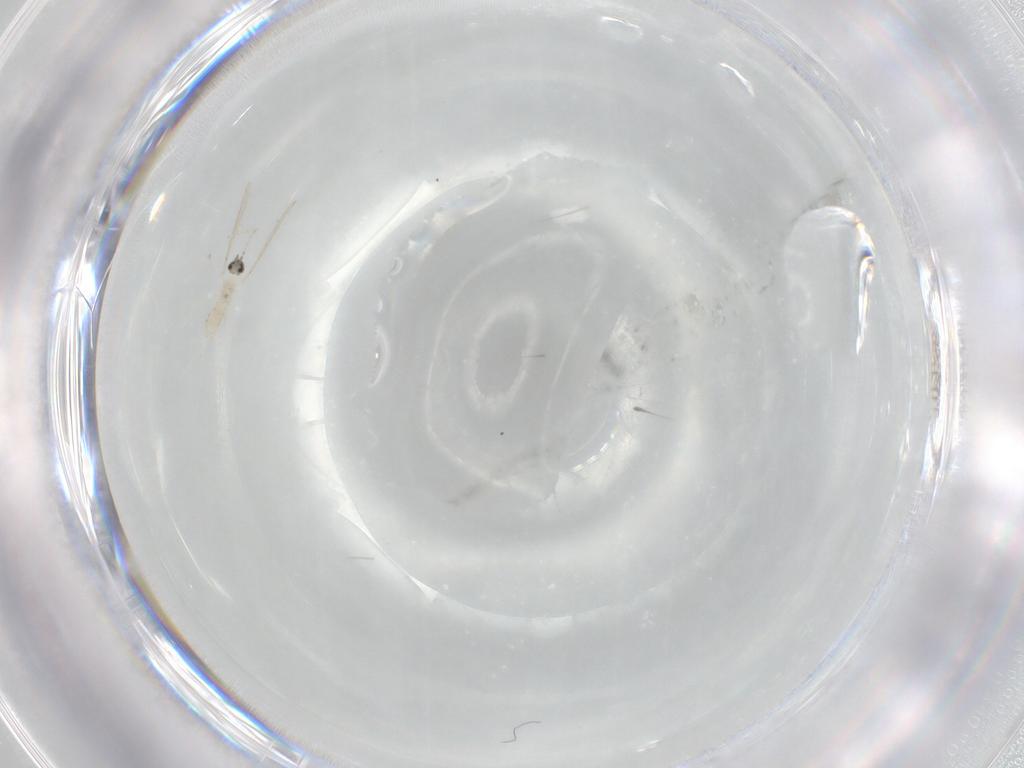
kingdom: Animalia
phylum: Arthropoda
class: Insecta
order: Diptera
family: Cecidomyiidae
